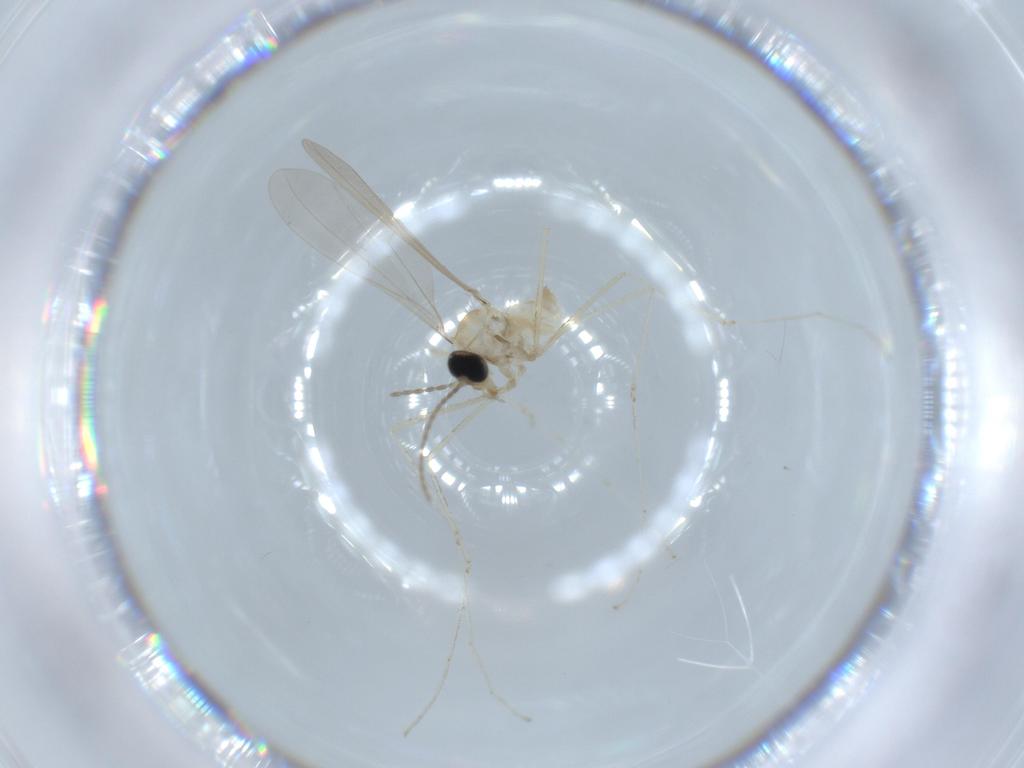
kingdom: Animalia
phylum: Arthropoda
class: Insecta
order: Diptera
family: Cecidomyiidae
